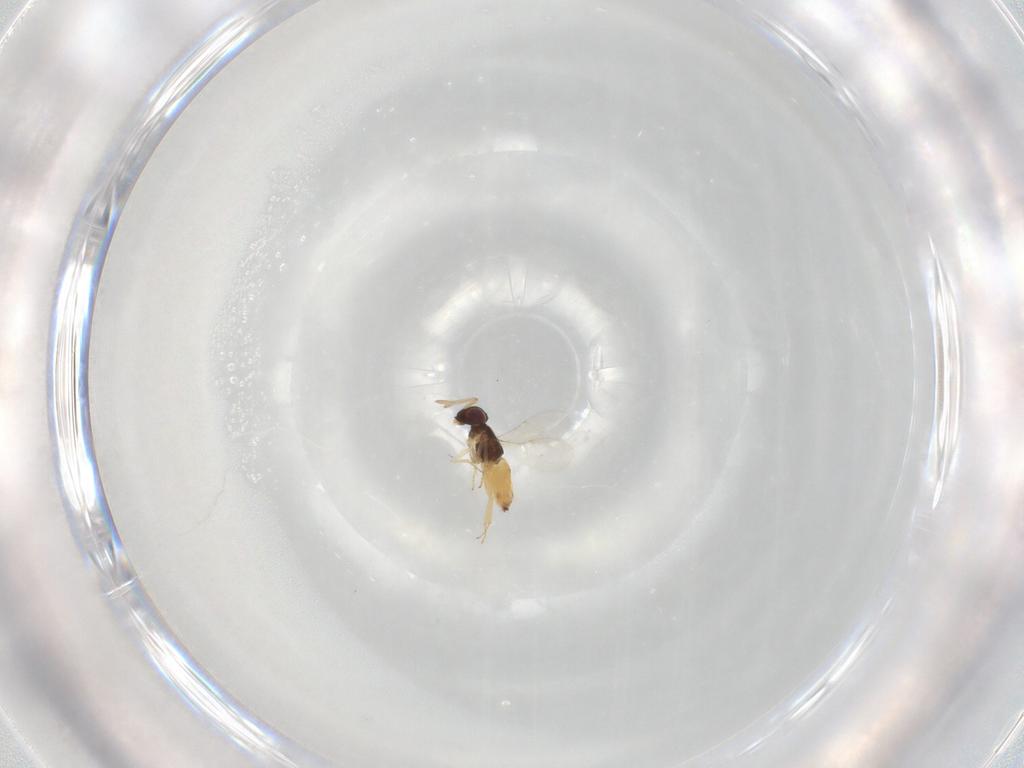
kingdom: Animalia
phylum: Arthropoda
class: Insecta
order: Hymenoptera
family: Encyrtidae
